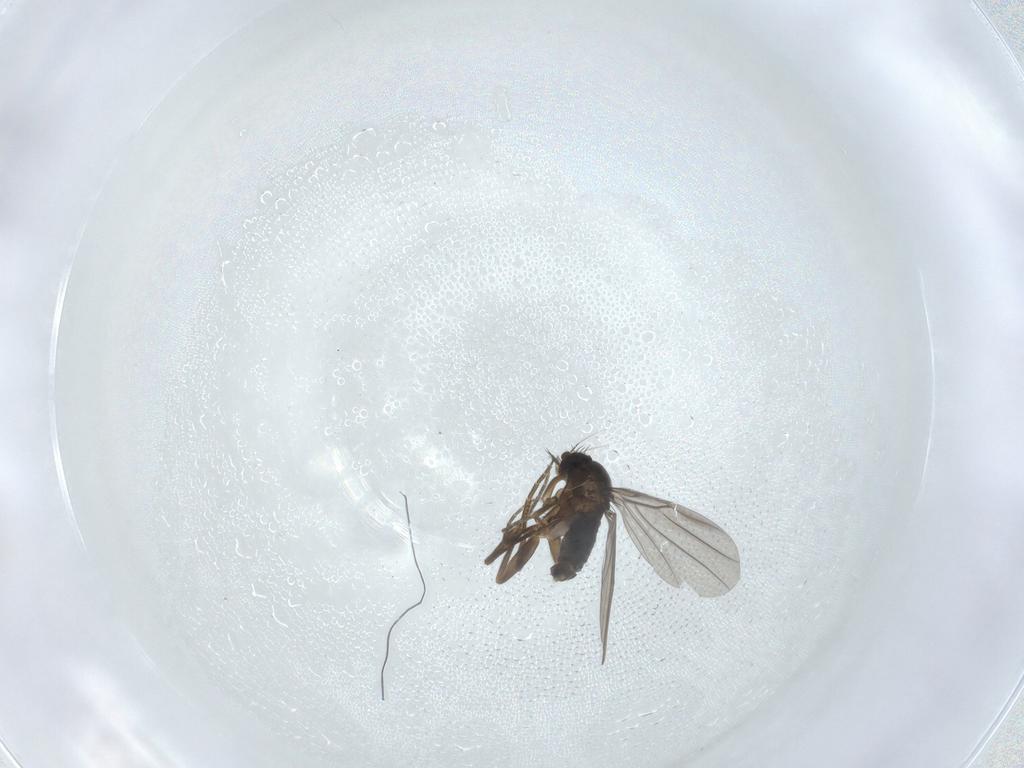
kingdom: Animalia
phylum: Arthropoda
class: Insecta
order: Diptera
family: Phoridae
